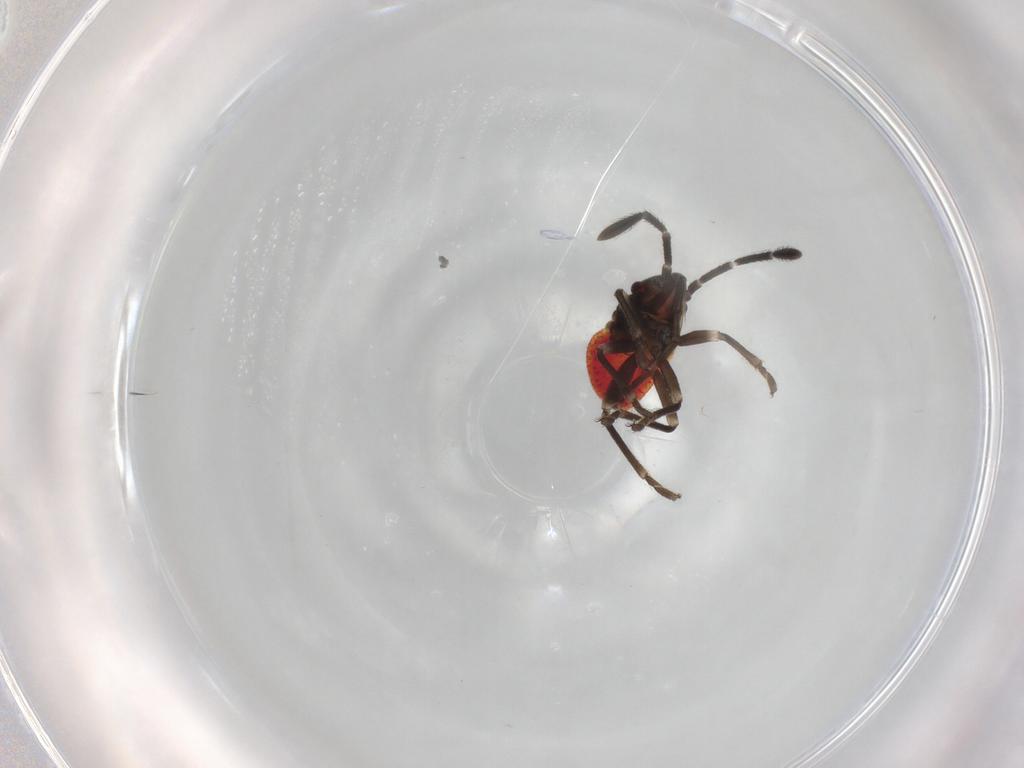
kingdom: Animalia
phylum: Arthropoda
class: Insecta
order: Hemiptera
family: Lygaeidae
